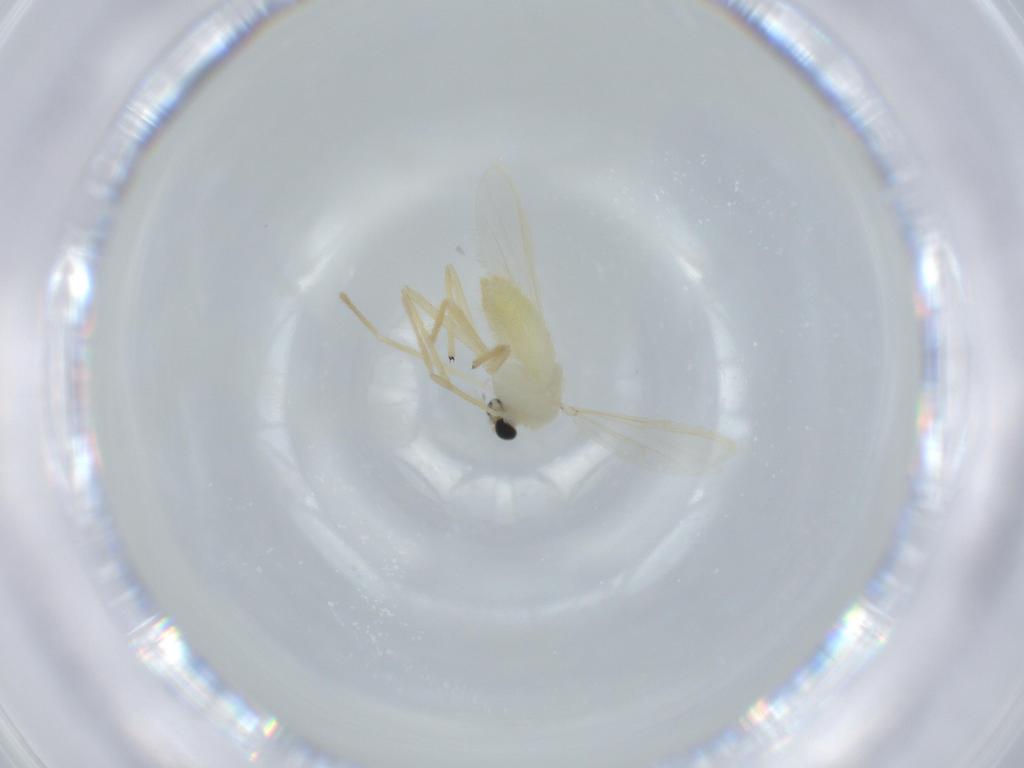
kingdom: Animalia
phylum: Arthropoda
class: Insecta
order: Diptera
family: Chironomidae
